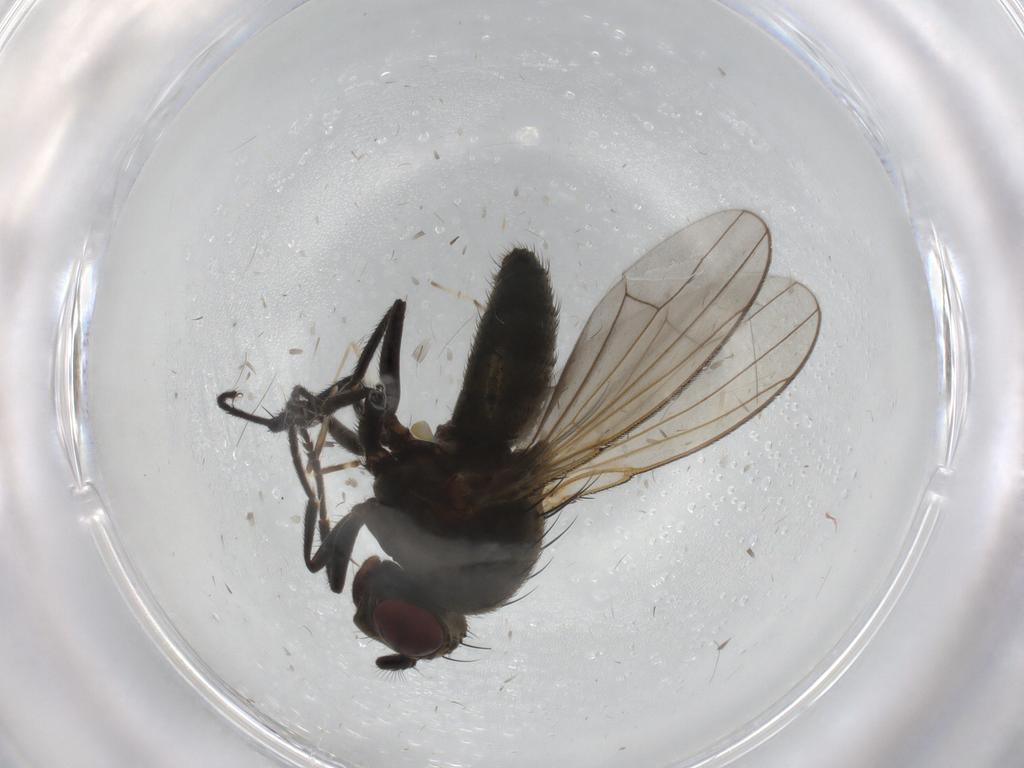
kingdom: Animalia
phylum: Arthropoda
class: Insecta
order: Diptera
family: Ephydridae
